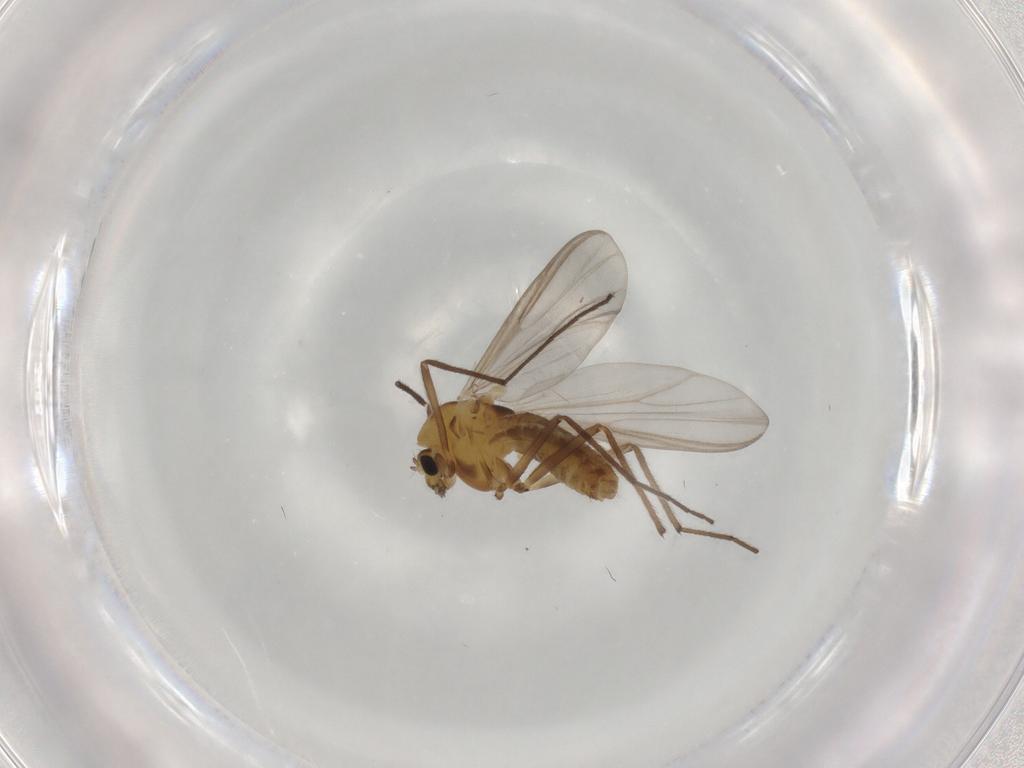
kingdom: Animalia
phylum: Arthropoda
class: Insecta
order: Diptera
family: Chironomidae
